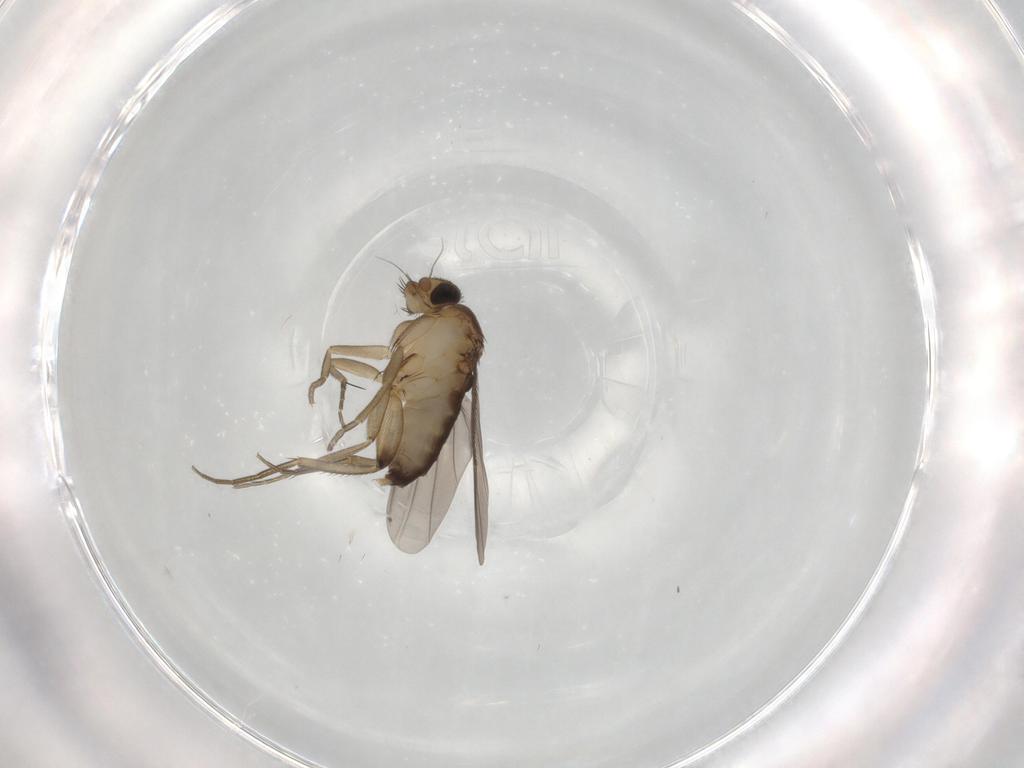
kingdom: Animalia
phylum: Arthropoda
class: Insecta
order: Diptera
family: Phoridae
